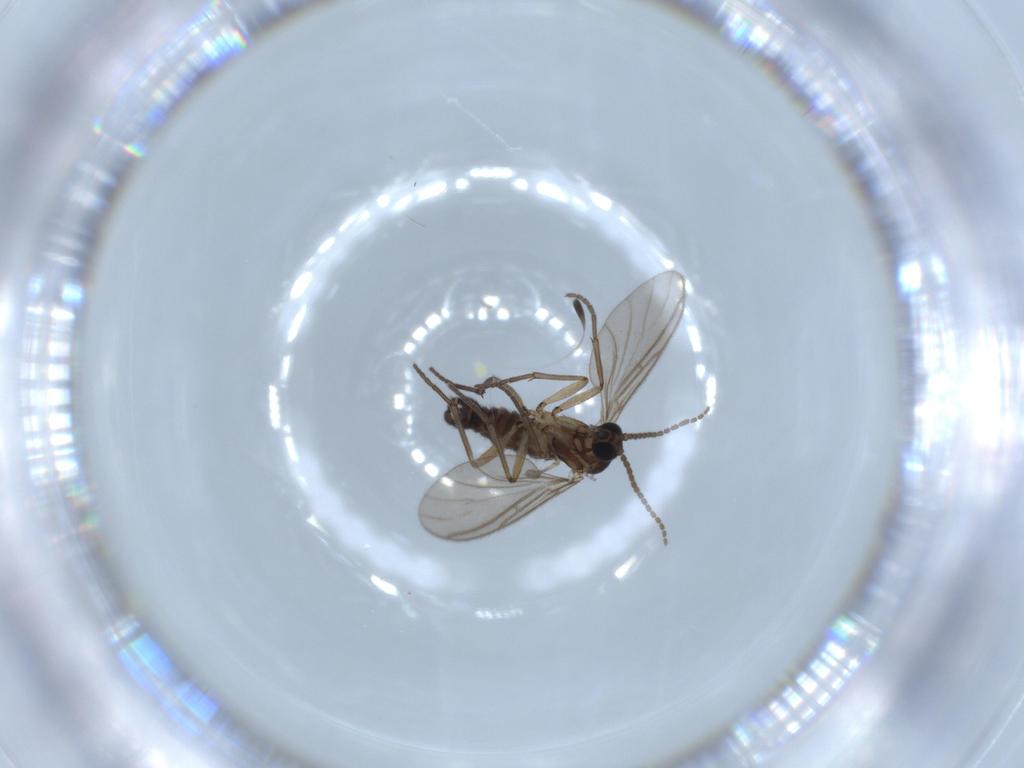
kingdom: Animalia
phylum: Arthropoda
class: Insecta
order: Diptera
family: Sciaridae
